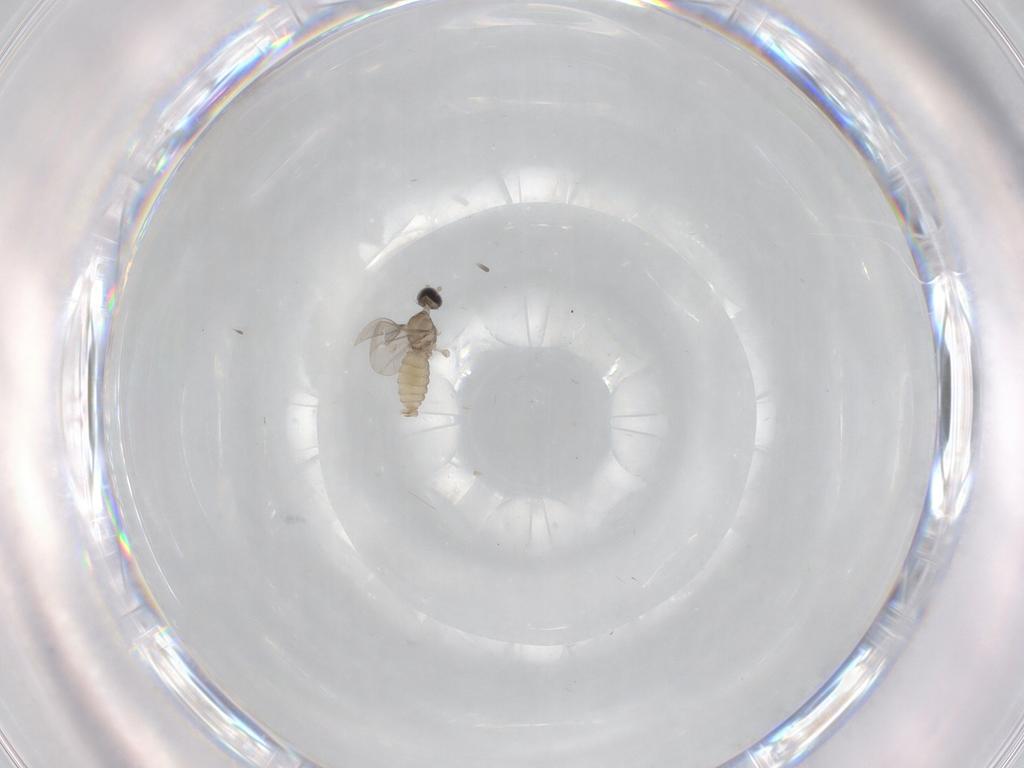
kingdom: Animalia
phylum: Arthropoda
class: Insecta
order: Diptera
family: Cecidomyiidae
